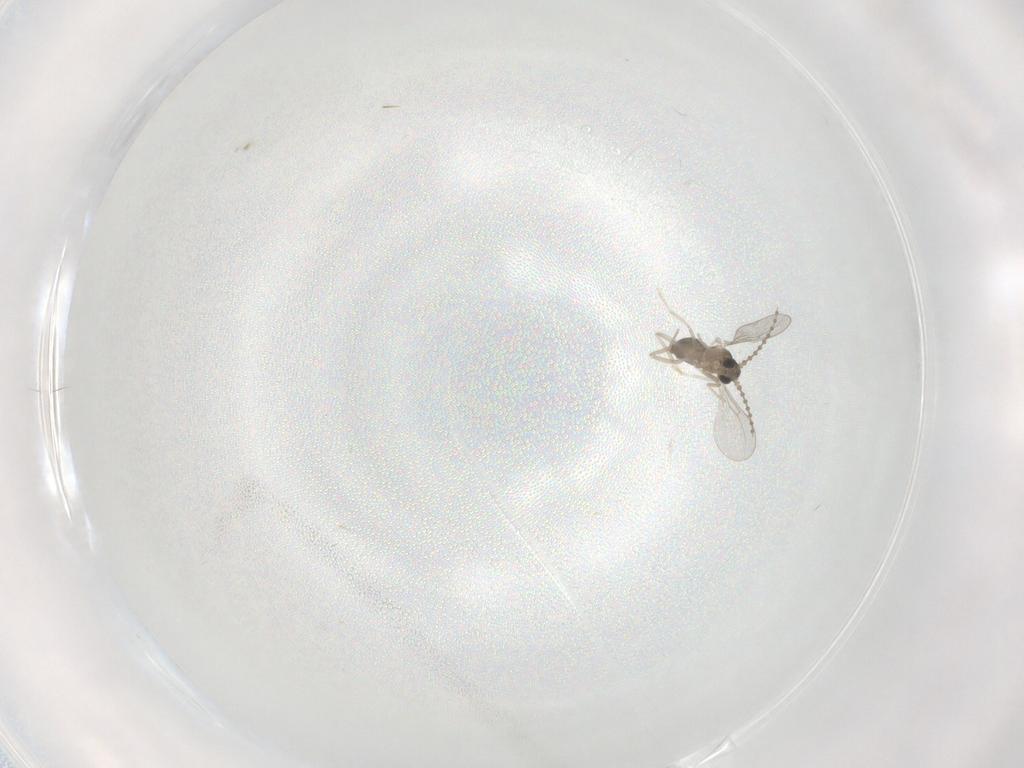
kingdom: Animalia
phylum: Arthropoda
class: Insecta
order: Diptera
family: Cecidomyiidae
